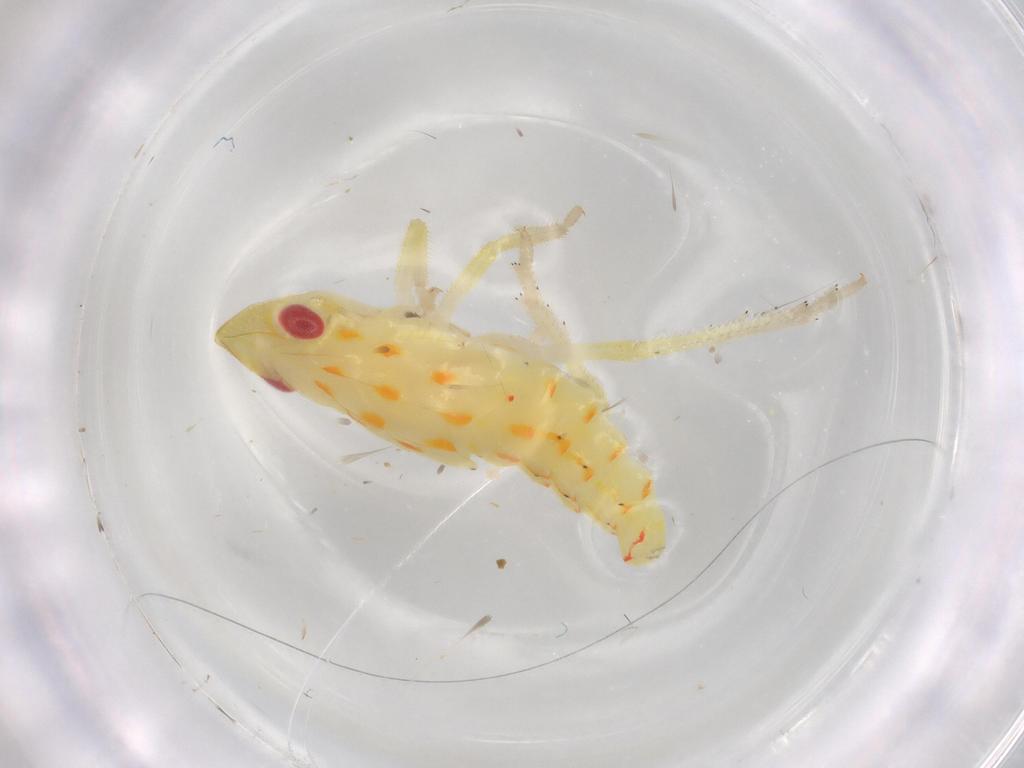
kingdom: Animalia
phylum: Arthropoda
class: Insecta
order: Hemiptera
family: Tropiduchidae
